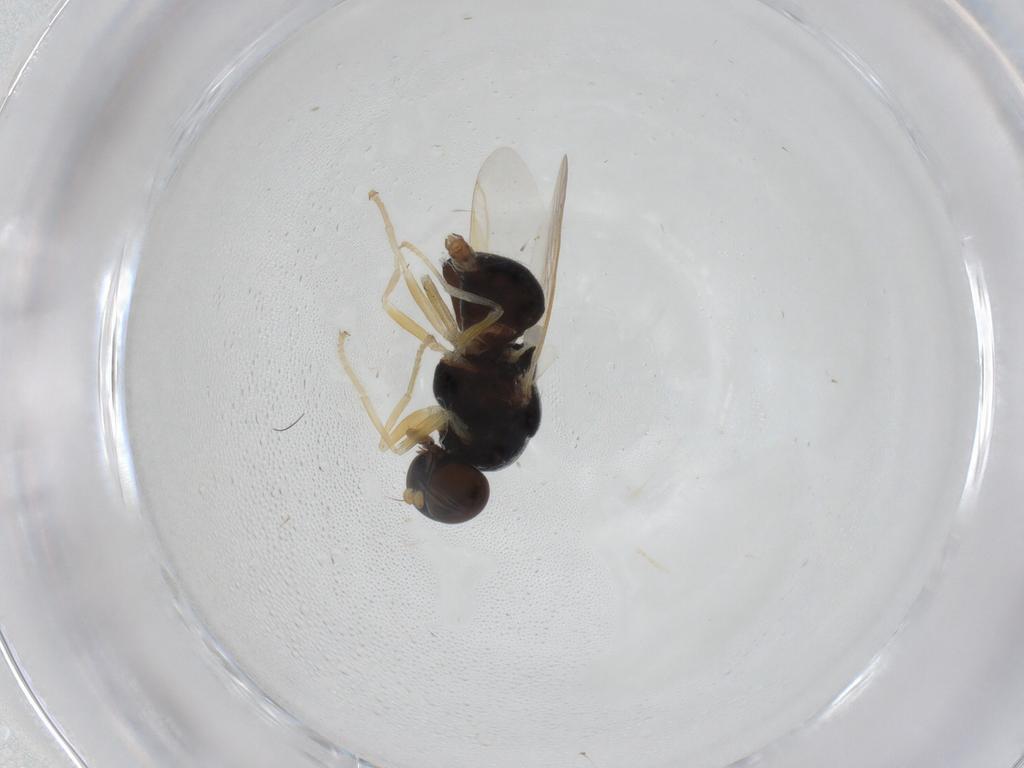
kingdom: Animalia
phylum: Arthropoda
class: Insecta
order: Diptera
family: Stratiomyidae
